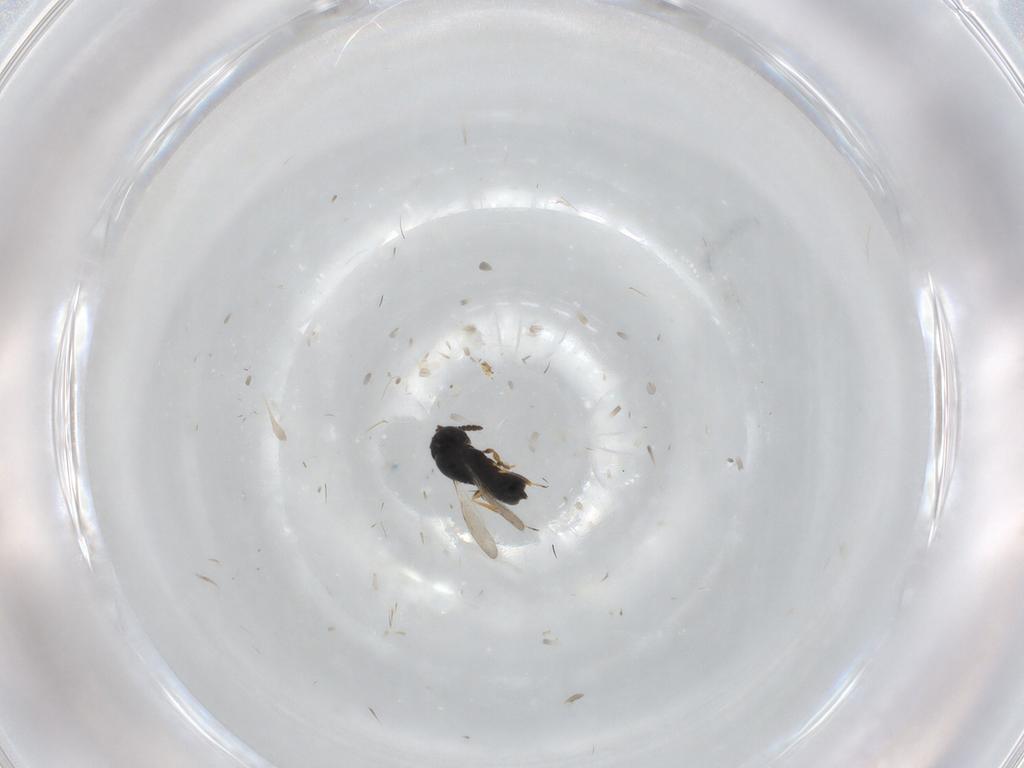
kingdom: Animalia
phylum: Arthropoda
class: Insecta
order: Hymenoptera
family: Scelionidae
